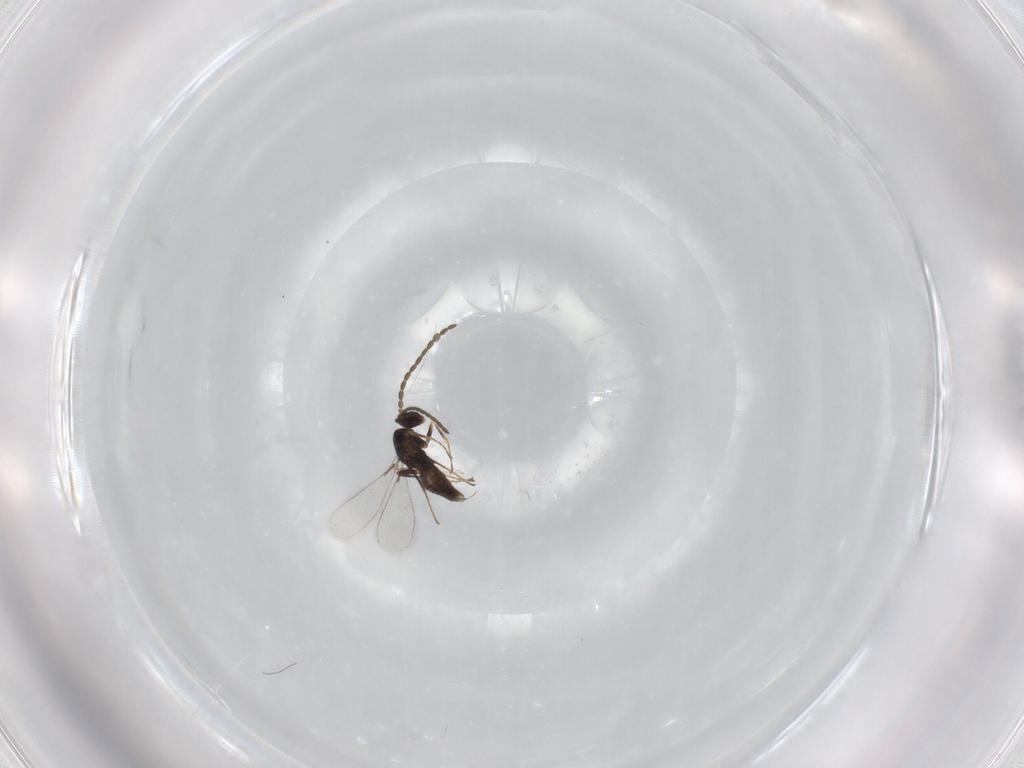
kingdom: Animalia
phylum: Arthropoda
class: Insecta
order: Hymenoptera
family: Mymaridae
